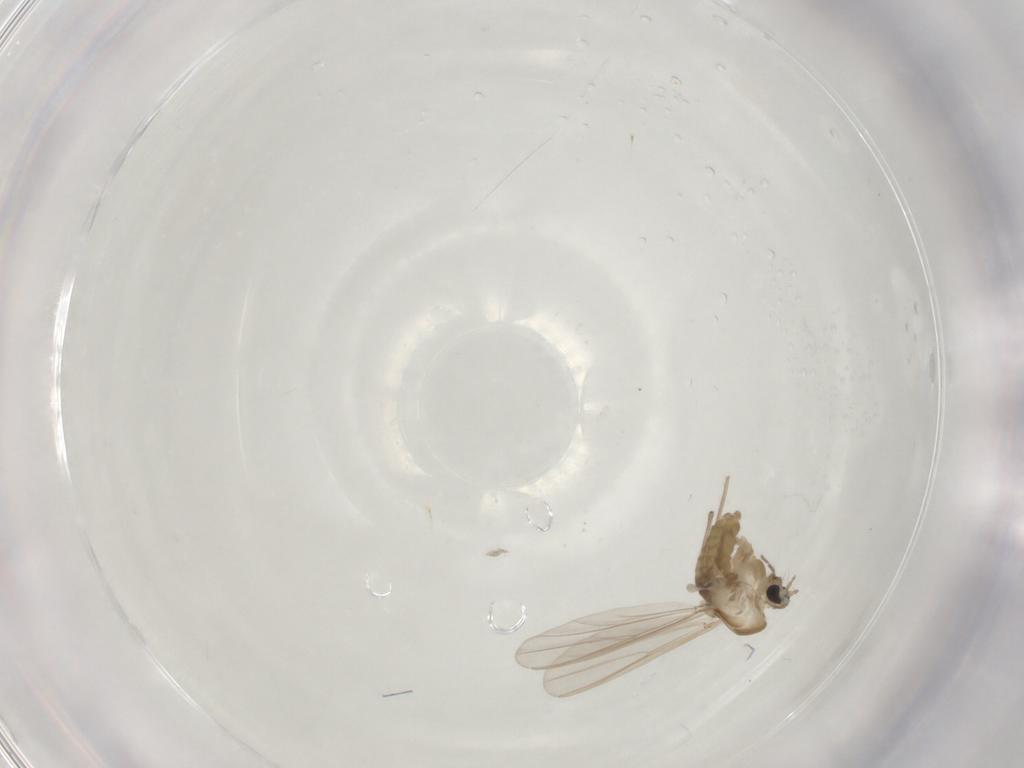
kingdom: Animalia
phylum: Arthropoda
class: Insecta
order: Diptera
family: Chironomidae
